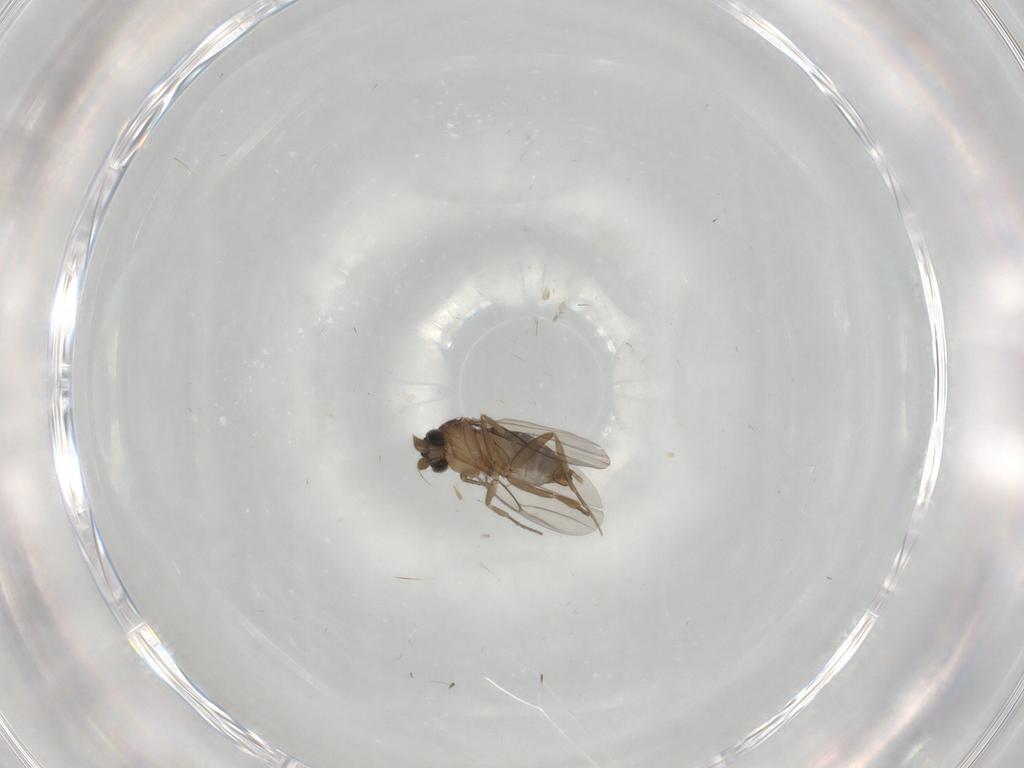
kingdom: Animalia
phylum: Arthropoda
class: Insecta
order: Diptera
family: Phoridae
